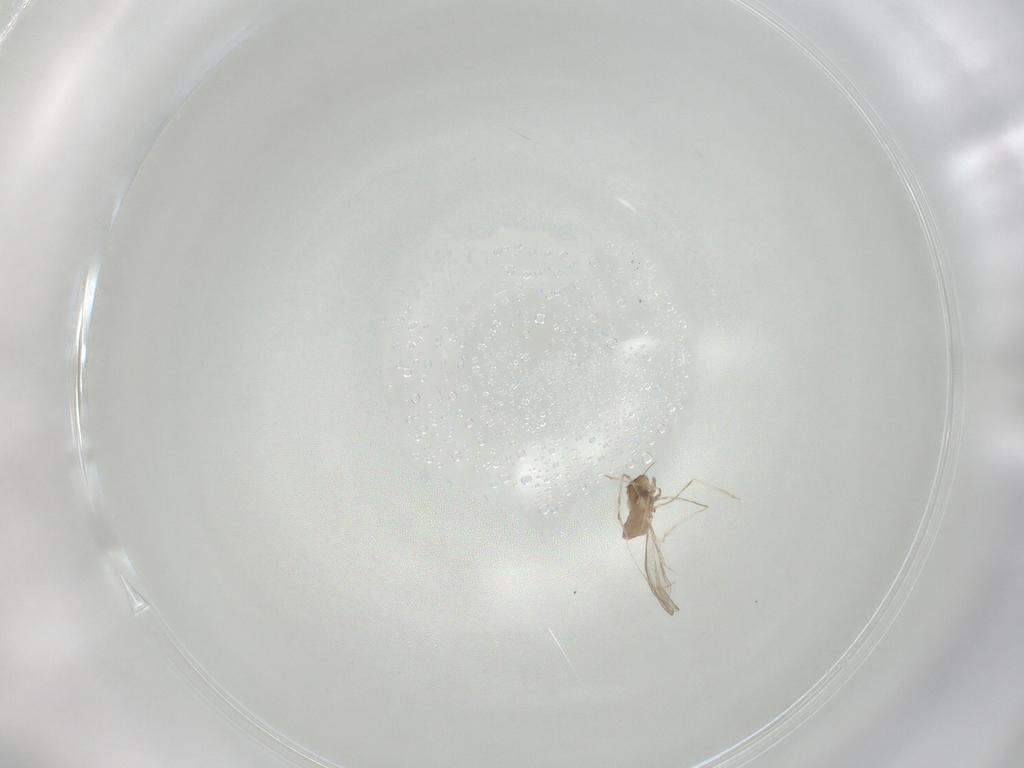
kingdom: Animalia
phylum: Arthropoda
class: Insecta
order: Diptera
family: Cecidomyiidae
